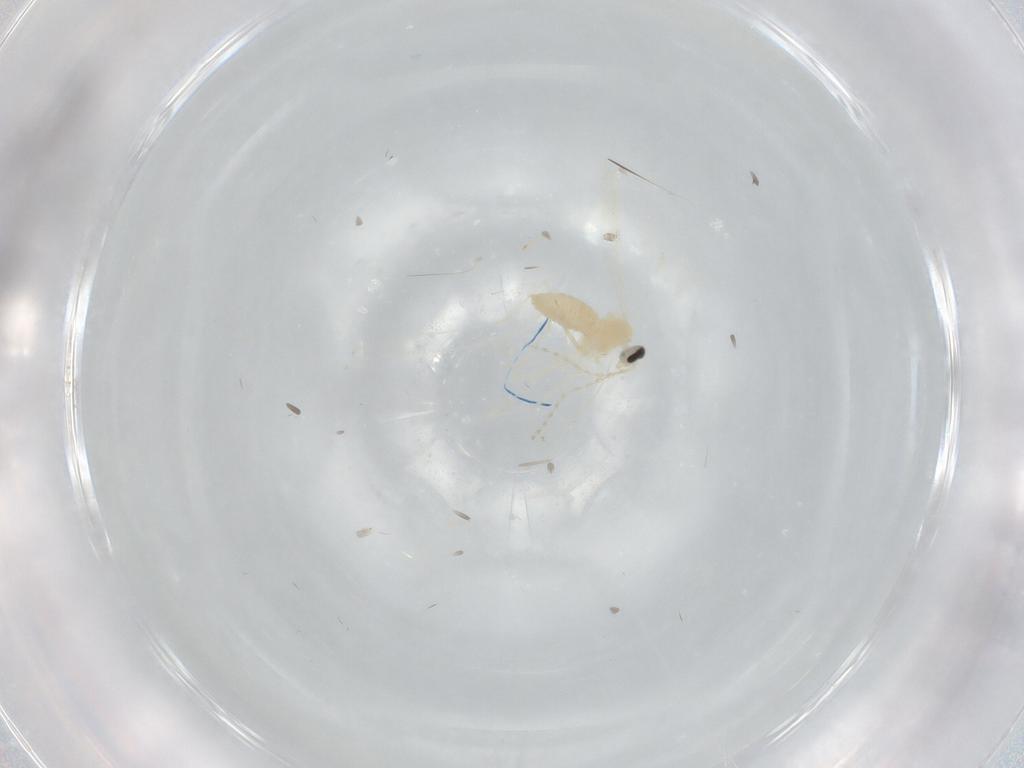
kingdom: Animalia
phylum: Arthropoda
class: Insecta
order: Diptera
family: Cecidomyiidae
